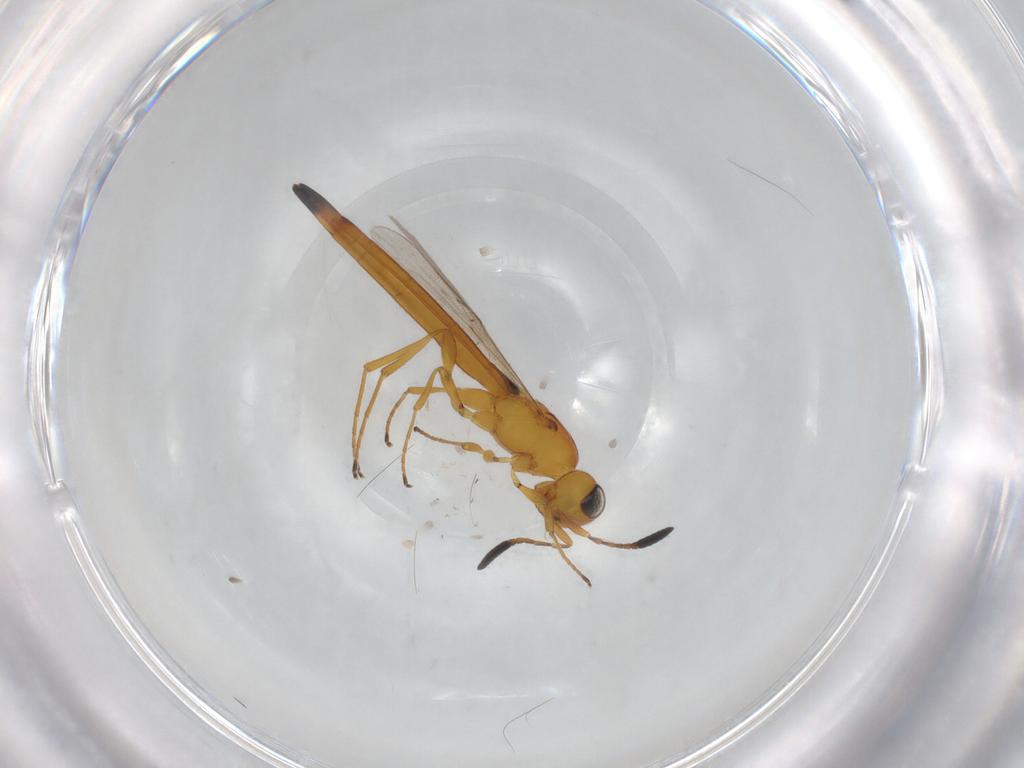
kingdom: Animalia
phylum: Arthropoda
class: Insecta
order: Hymenoptera
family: Scelionidae
